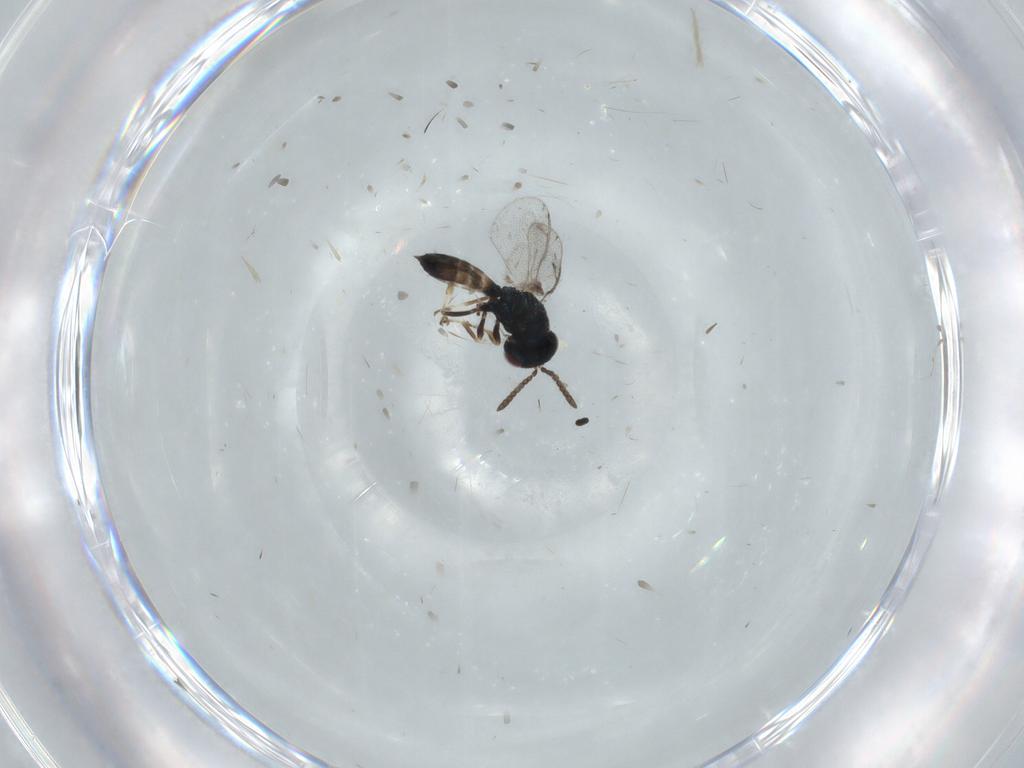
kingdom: Animalia
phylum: Arthropoda
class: Insecta
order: Hymenoptera
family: Pteromalidae
